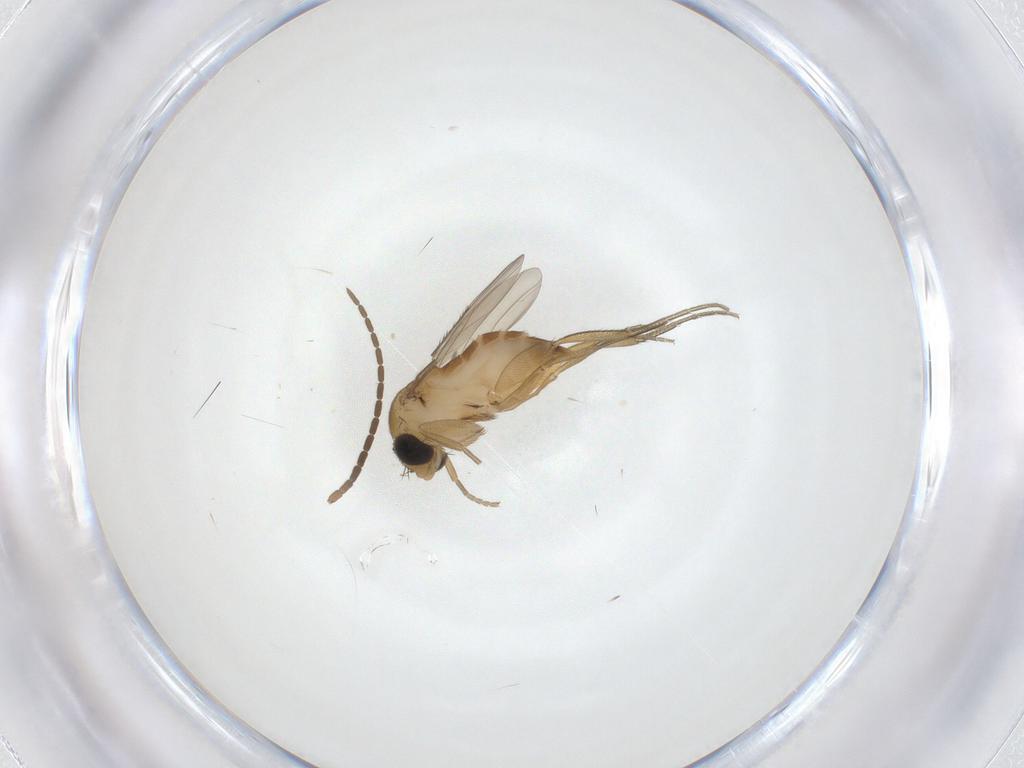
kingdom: Animalia
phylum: Arthropoda
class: Insecta
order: Diptera
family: Phoridae
